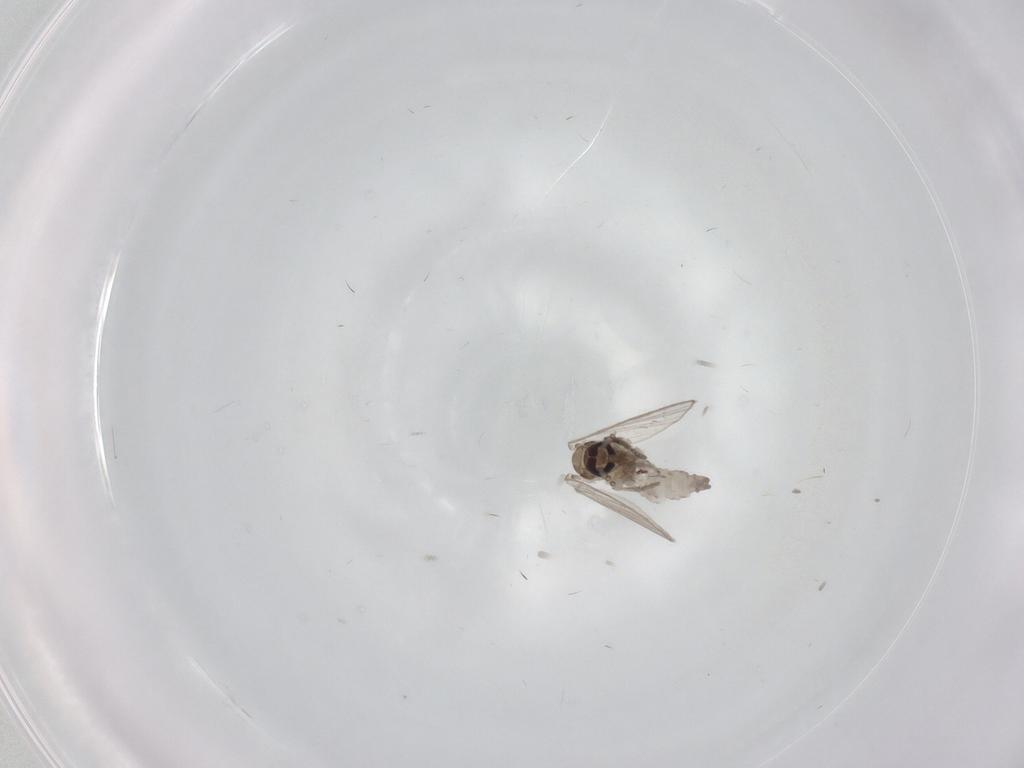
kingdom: Animalia
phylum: Arthropoda
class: Insecta
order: Diptera
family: Psychodidae
